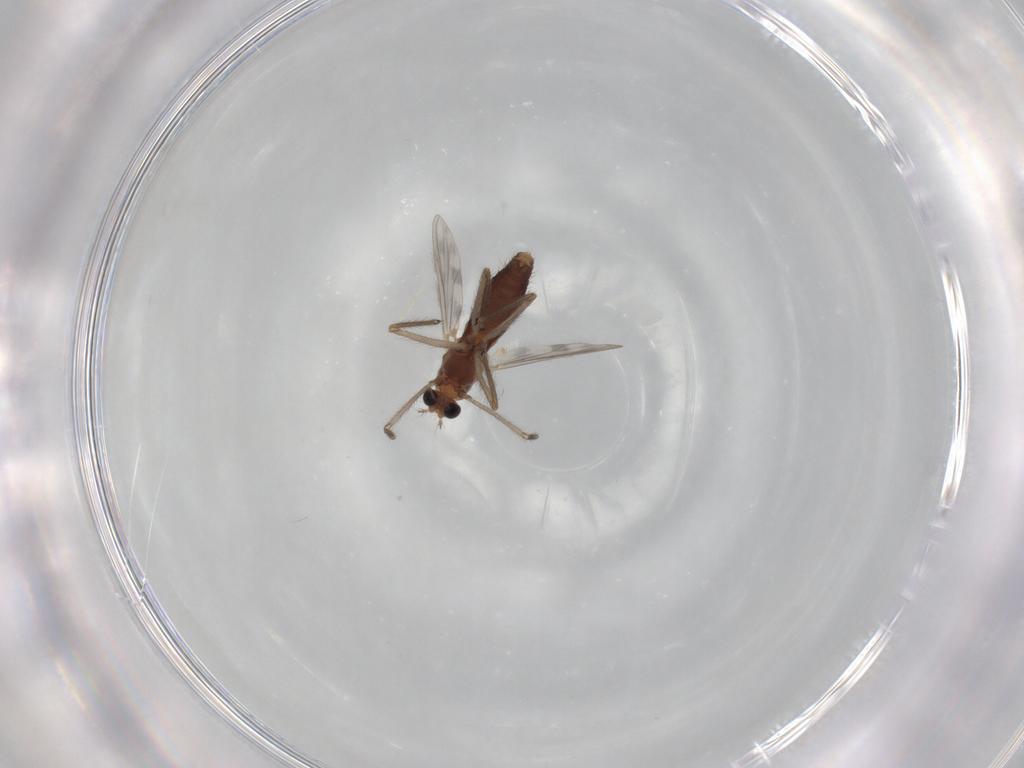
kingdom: Animalia
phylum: Arthropoda
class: Insecta
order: Diptera
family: Chironomidae
